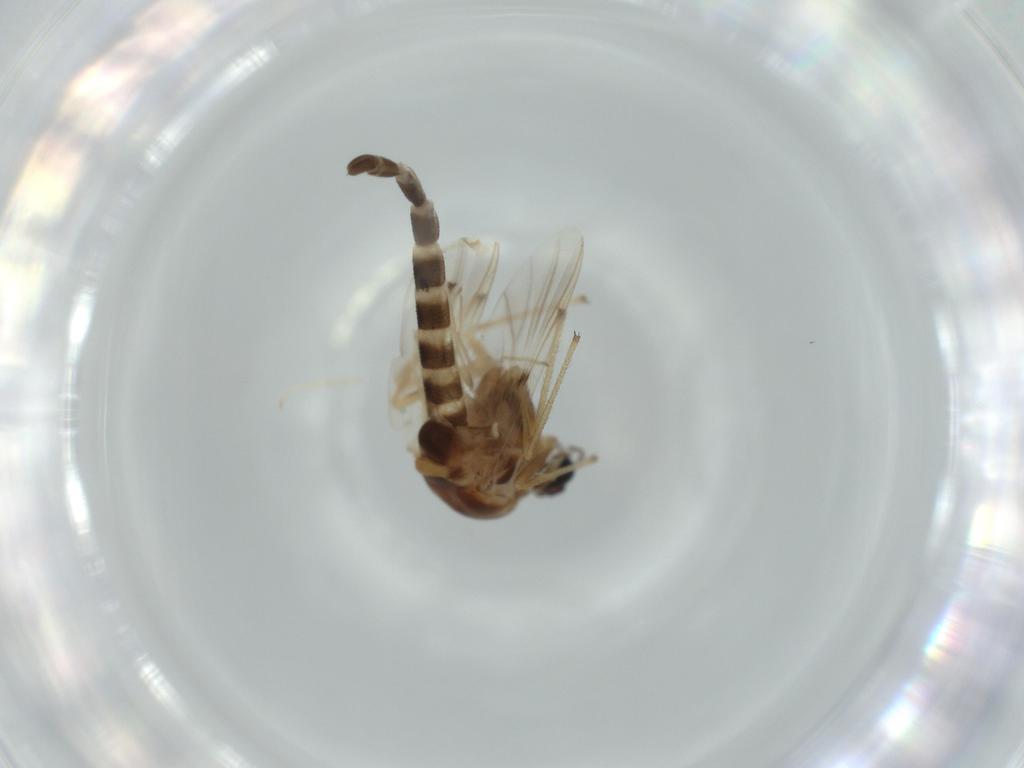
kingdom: Animalia
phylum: Arthropoda
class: Insecta
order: Diptera
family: Chironomidae
